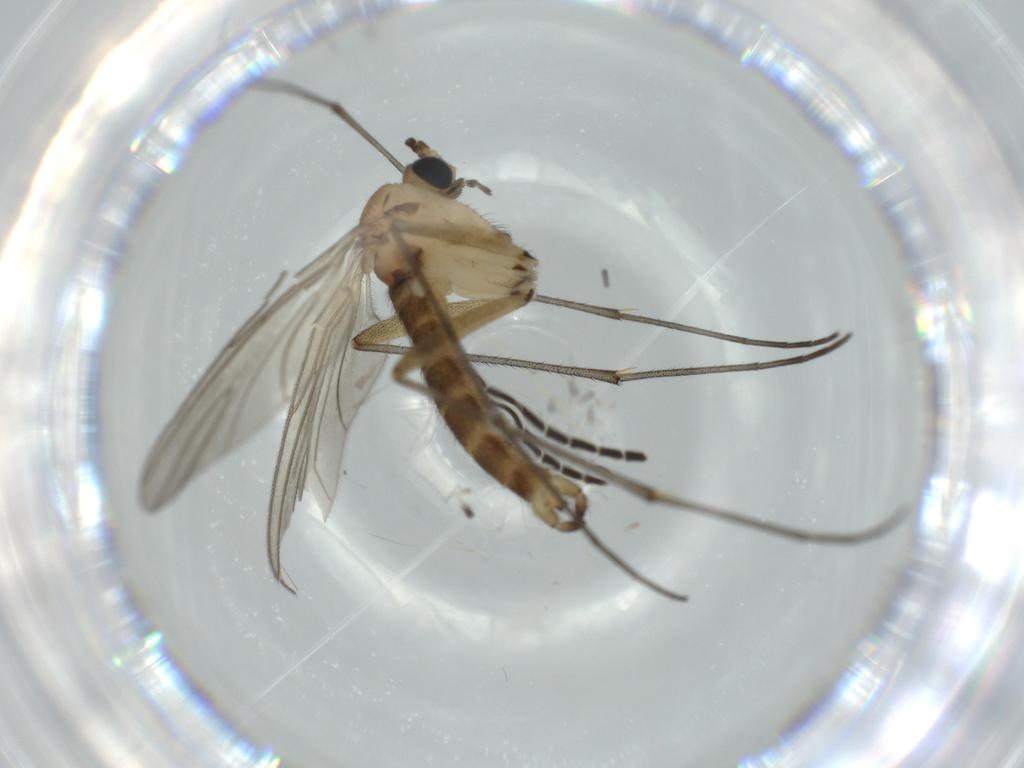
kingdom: Animalia
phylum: Arthropoda
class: Insecta
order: Diptera
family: Sciaridae
